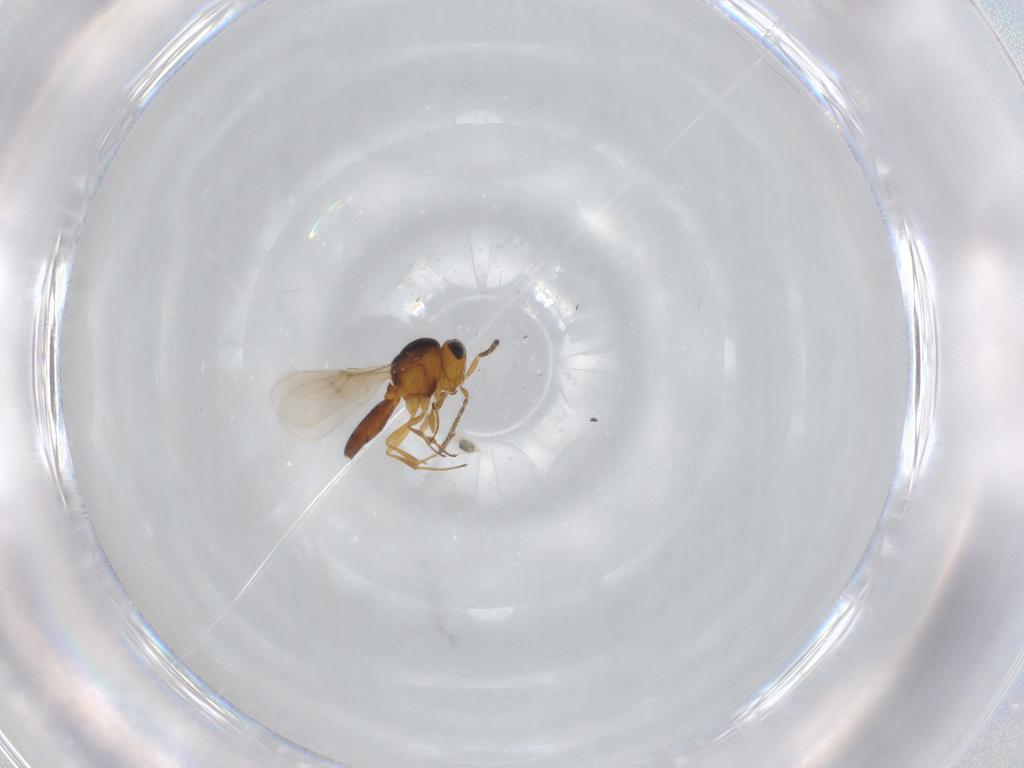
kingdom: Animalia
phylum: Arthropoda
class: Insecta
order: Hymenoptera
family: Scelionidae
